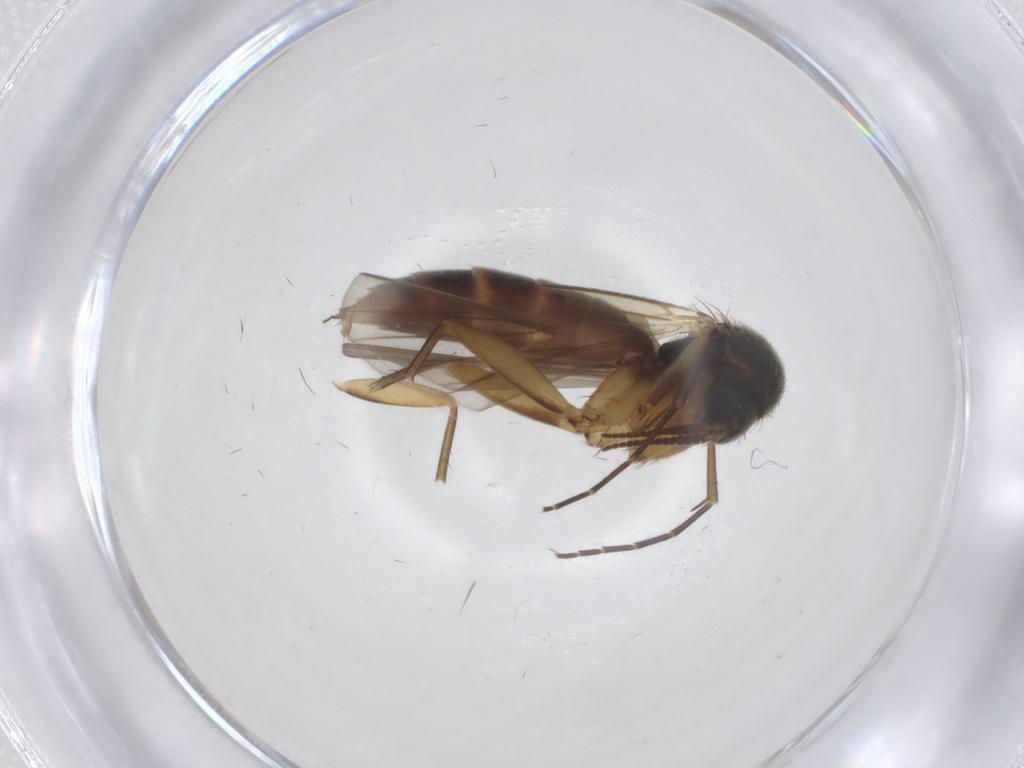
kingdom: Animalia
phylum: Arthropoda
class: Insecta
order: Diptera
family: Mycetophilidae
